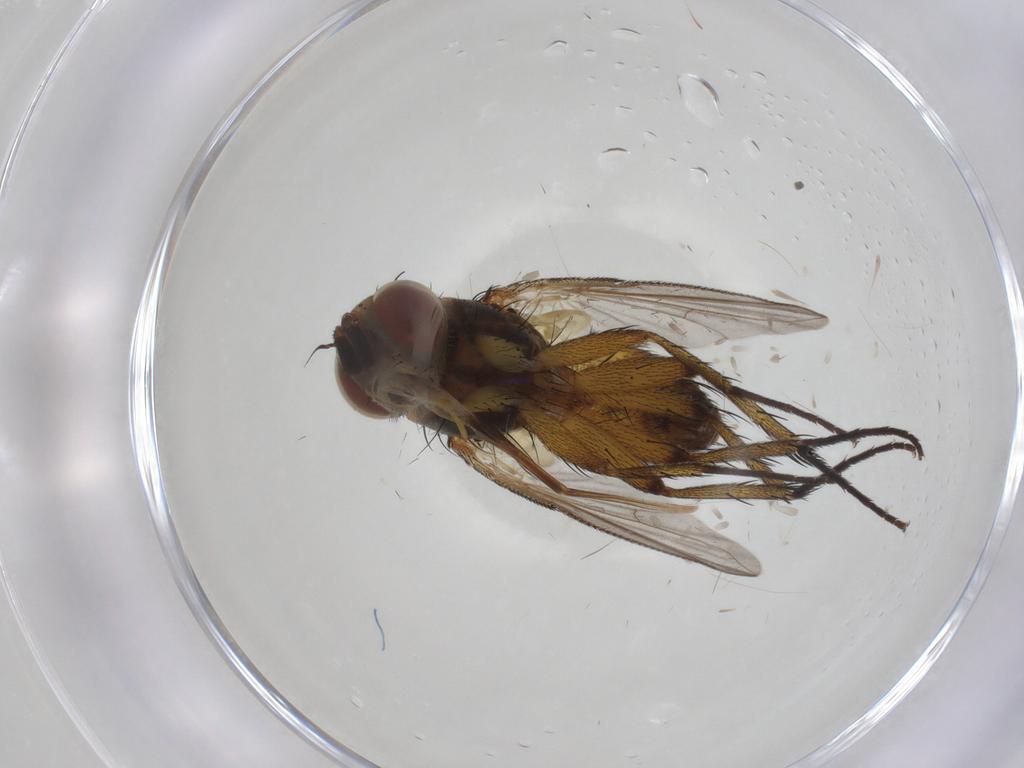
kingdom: Animalia
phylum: Arthropoda
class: Insecta
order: Diptera
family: Tachinidae
